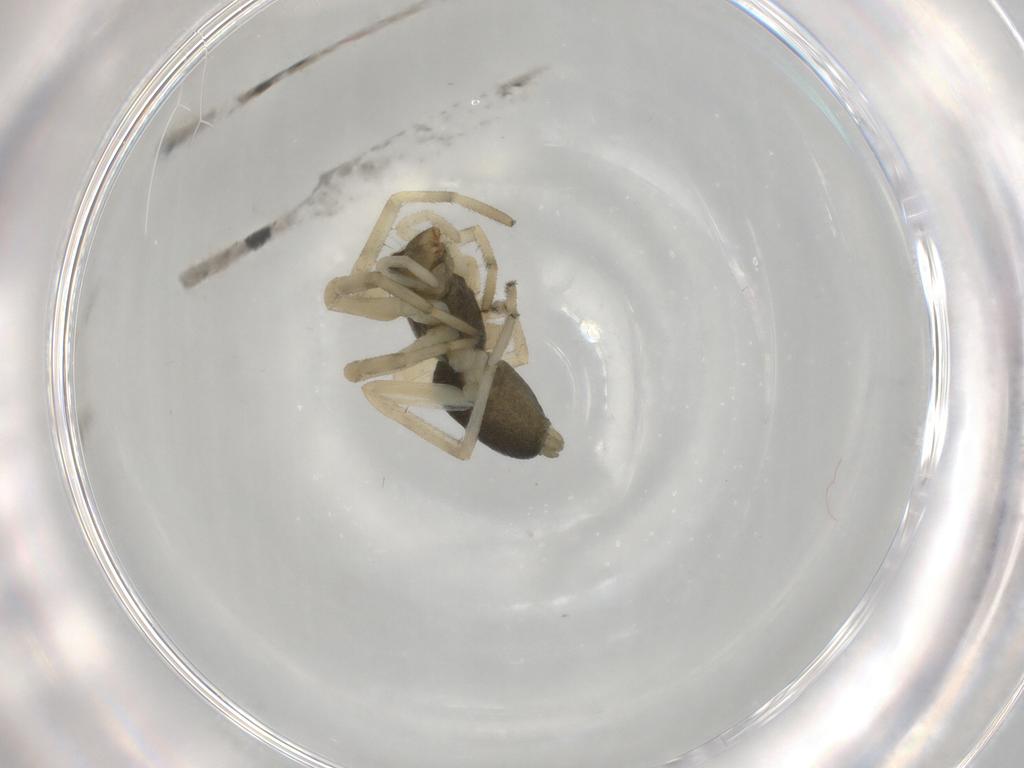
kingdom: Animalia
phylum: Arthropoda
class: Arachnida
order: Araneae
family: Trachelidae
